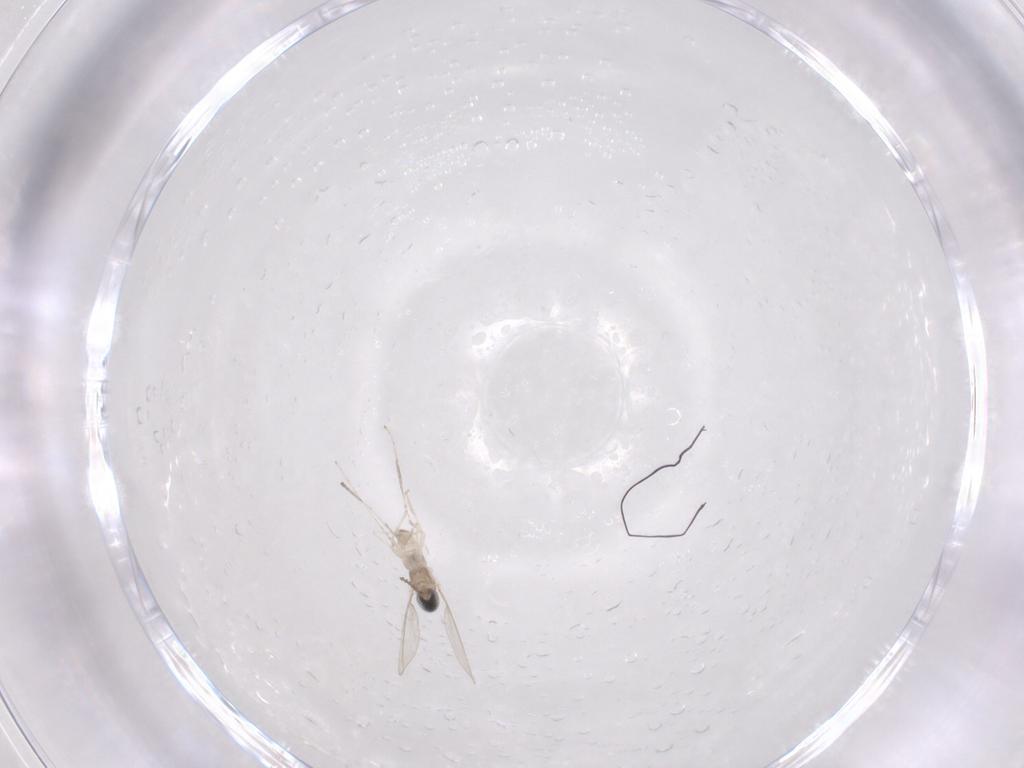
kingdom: Animalia
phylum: Arthropoda
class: Insecta
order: Diptera
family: Cecidomyiidae
